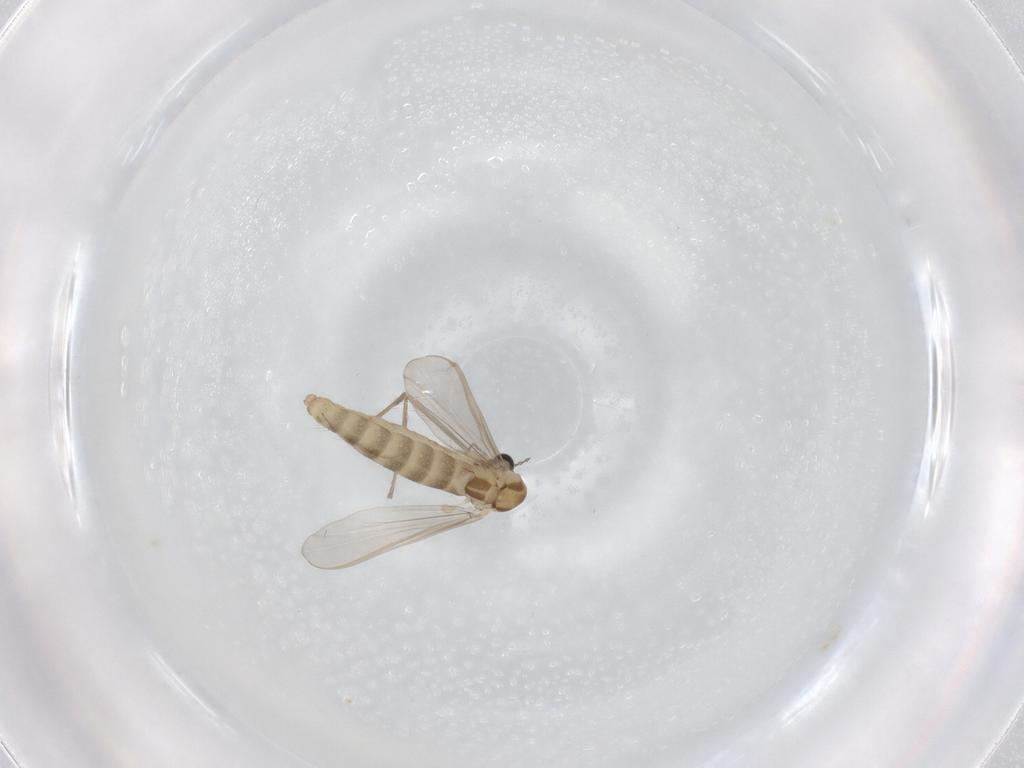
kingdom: Animalia
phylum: Arthropoda
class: Insecta
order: Diptera
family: Chironomidae
